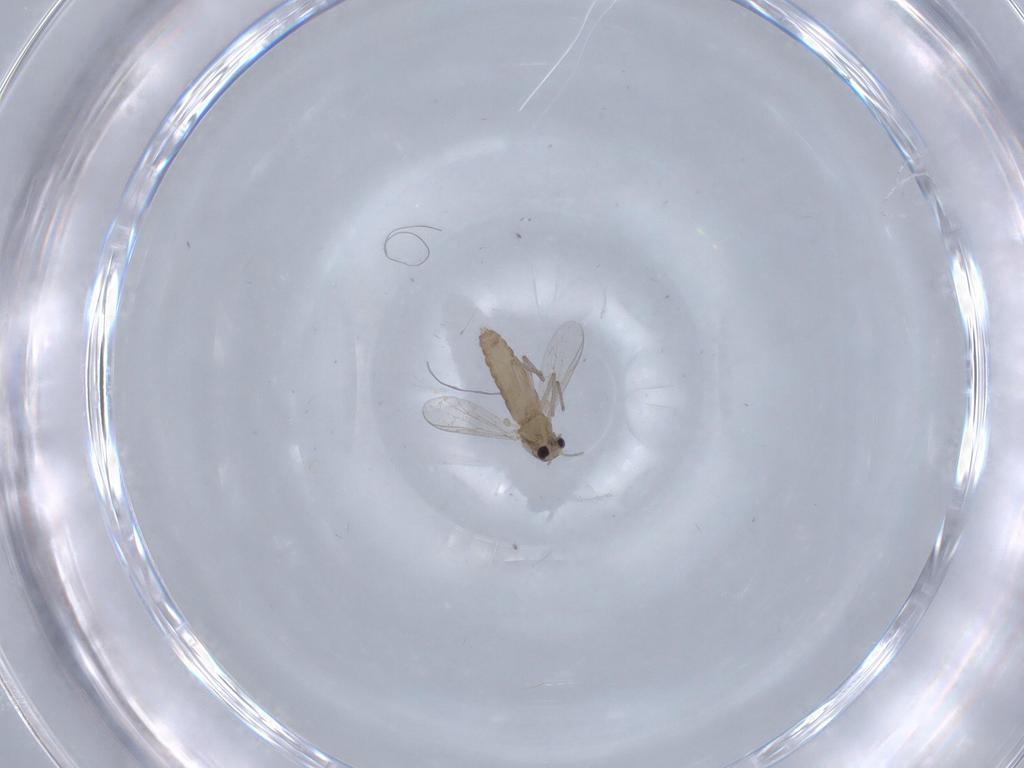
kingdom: Animalia
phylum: Arthropoda
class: Insecta
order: Diptera
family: Chironomidae
